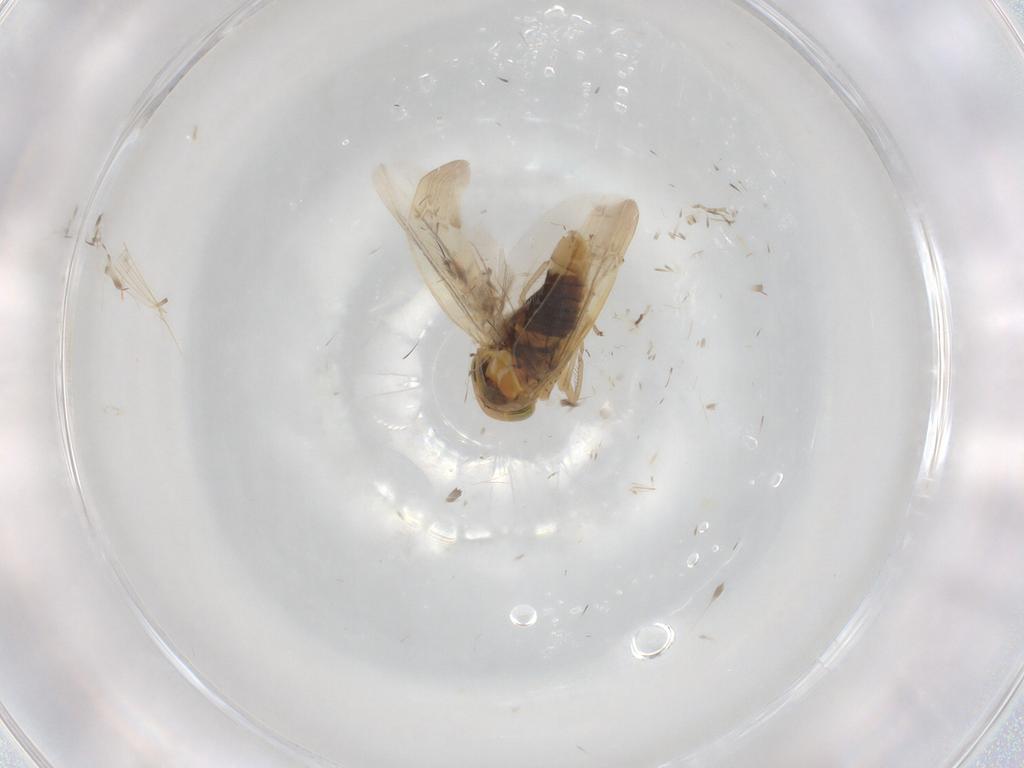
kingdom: Animalia
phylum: Arthropoda
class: Insecta
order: Hemiptera
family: Cicadellidae
